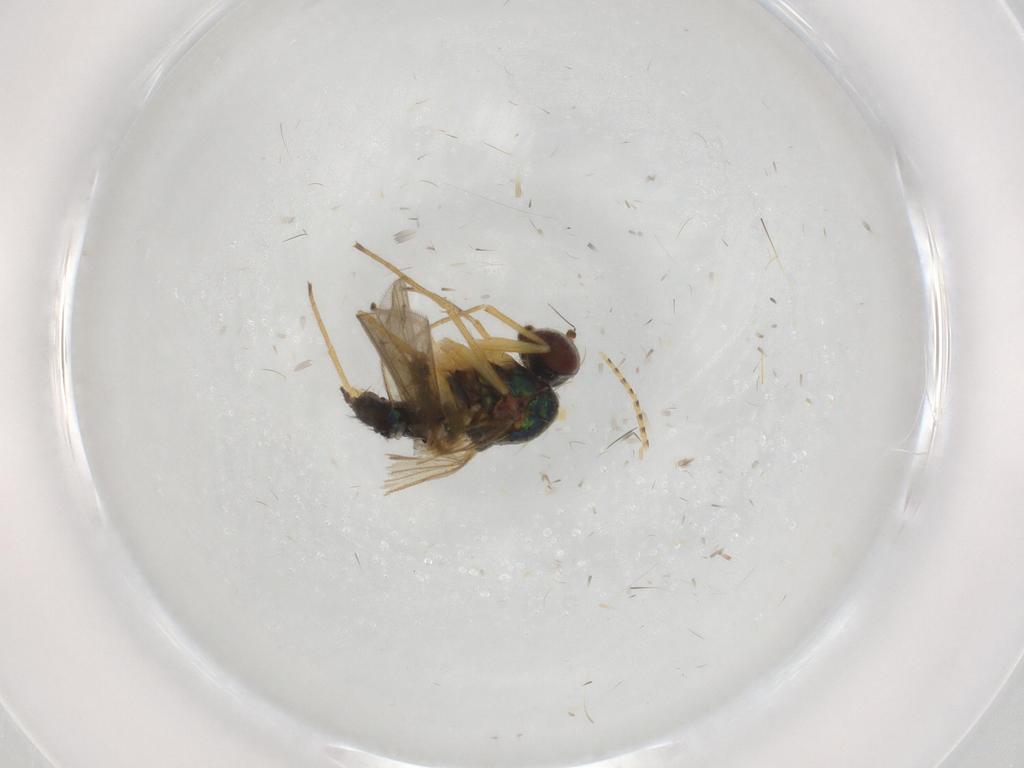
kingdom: Animalia
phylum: Arthropoda
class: Insecta
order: Diptera
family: Dolichopodidae
